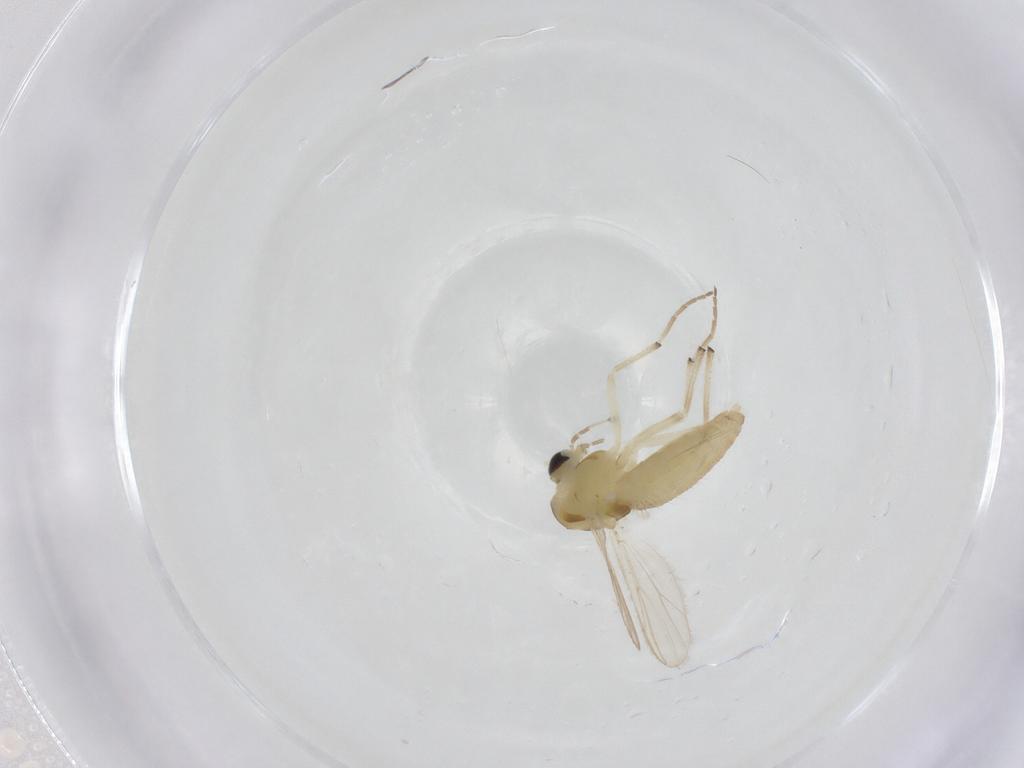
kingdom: Animalia
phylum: Arthropoda
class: Insecta
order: Diptera
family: Chironomidae
